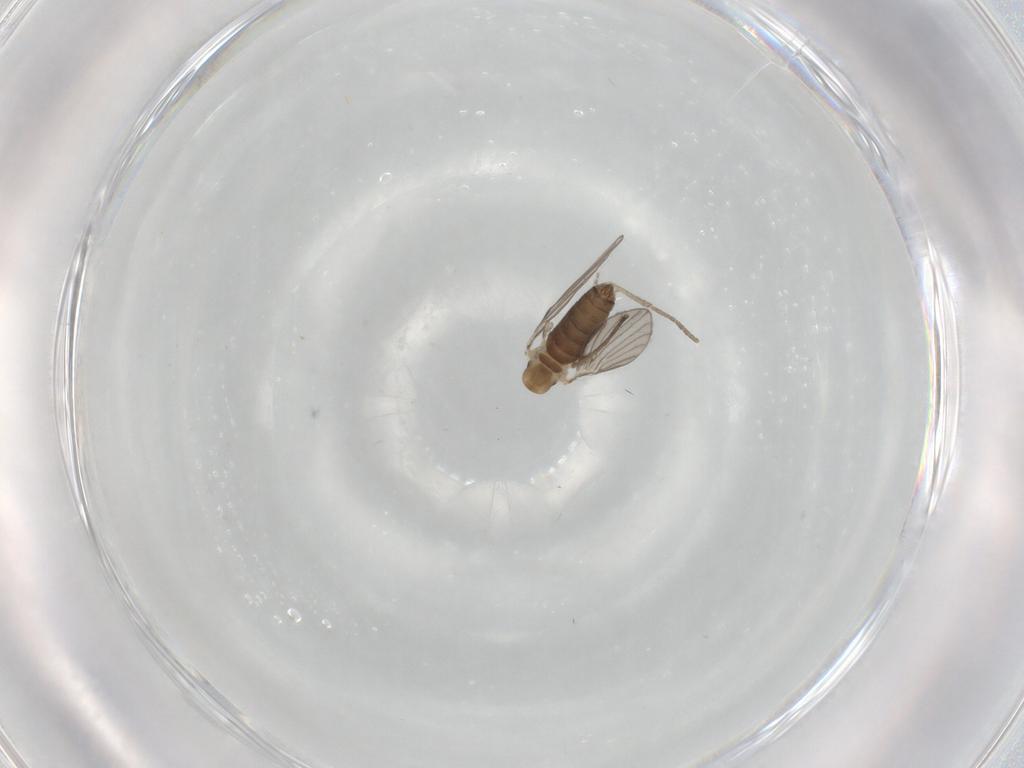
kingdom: Animalia
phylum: Arthropoda
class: Insecta
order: Diptera
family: Psychodidae
